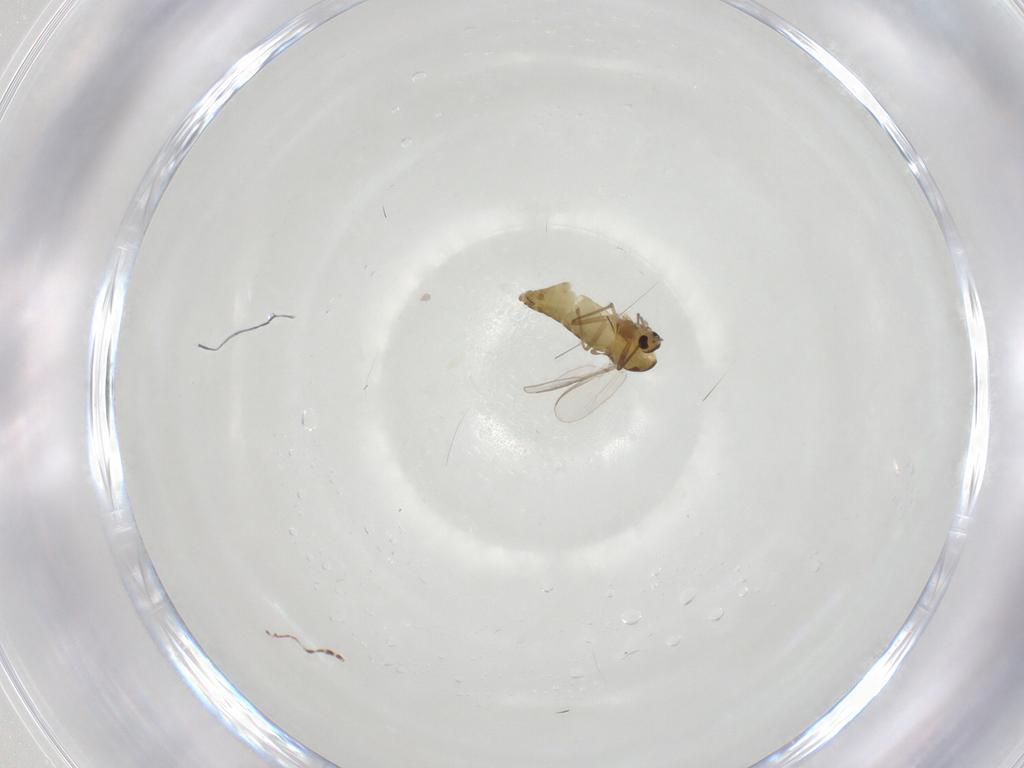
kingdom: Animalia
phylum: Arthropoda
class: Insecta
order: Diptera
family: Chironomidae
